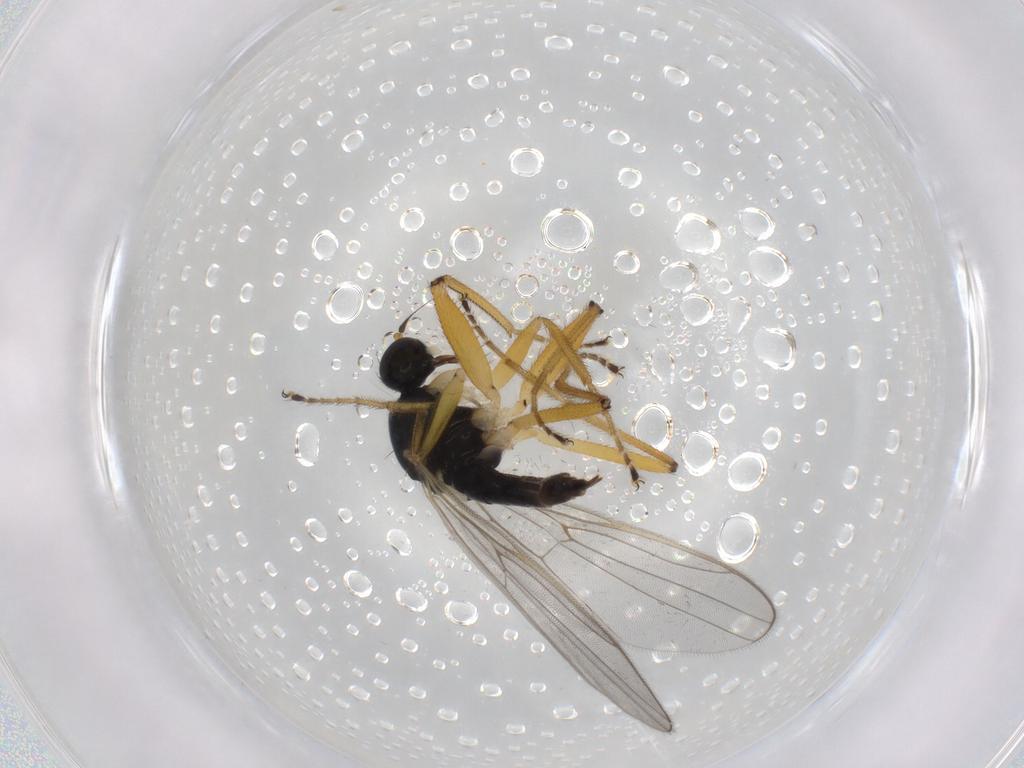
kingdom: Animalia
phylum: Arthropoda
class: Insecta
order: Diptera
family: Hybotidae
